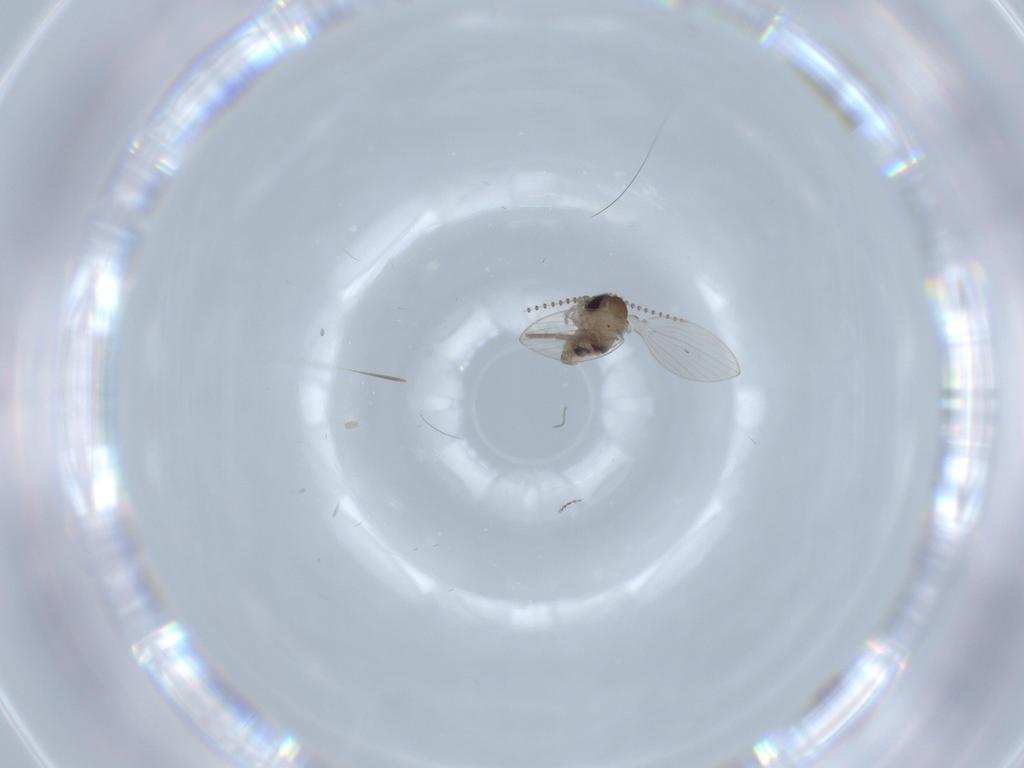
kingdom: Animalia
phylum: Arthropoda
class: Insecta
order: Diptera
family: Psychodidae
